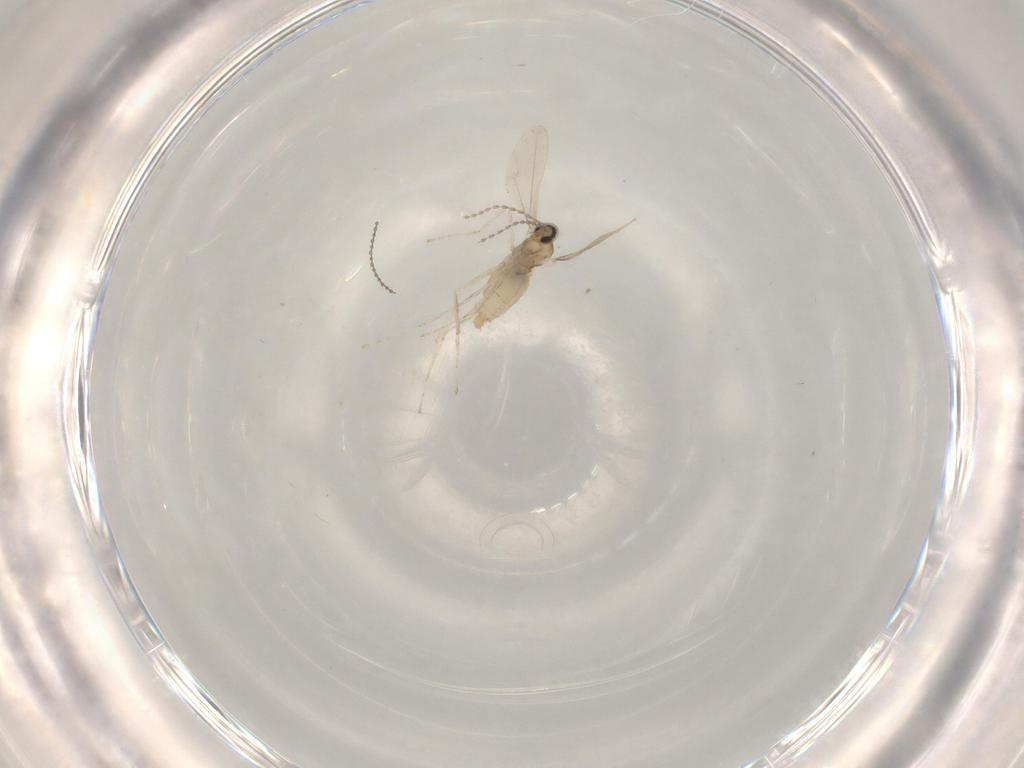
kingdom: Animalia
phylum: Arthropoda
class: Insecta
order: Diptera
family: Cecidomyiidae
